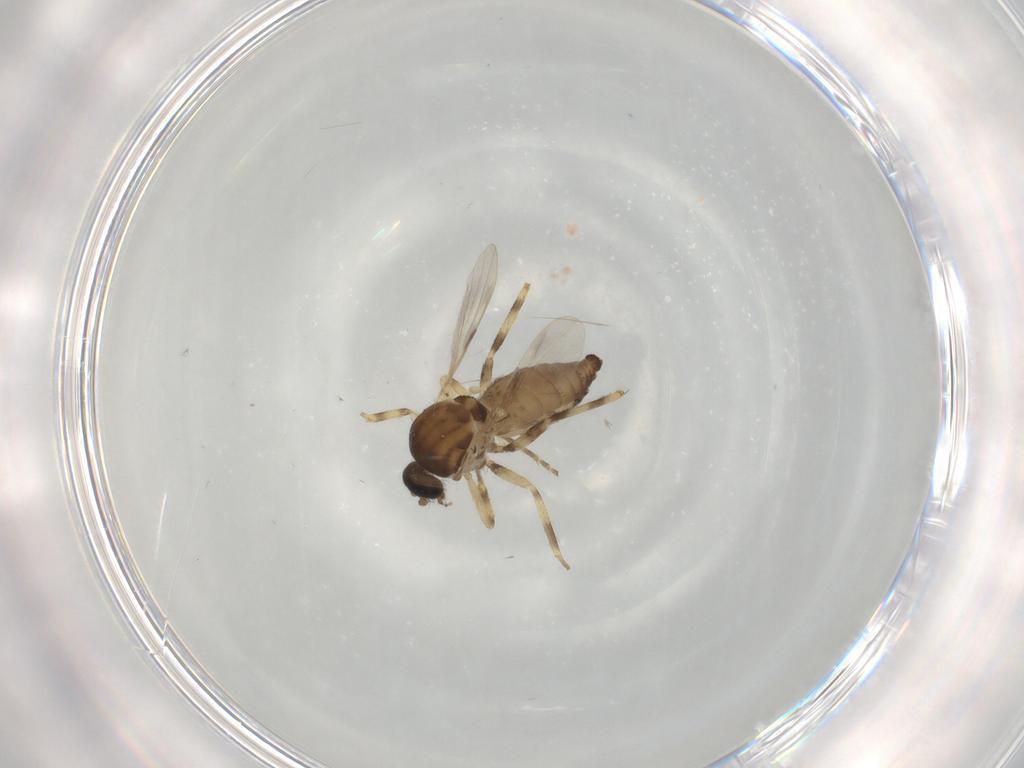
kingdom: Animalia
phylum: Arthropoda
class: Insecta
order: Diptera
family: Ceratopogonidae
